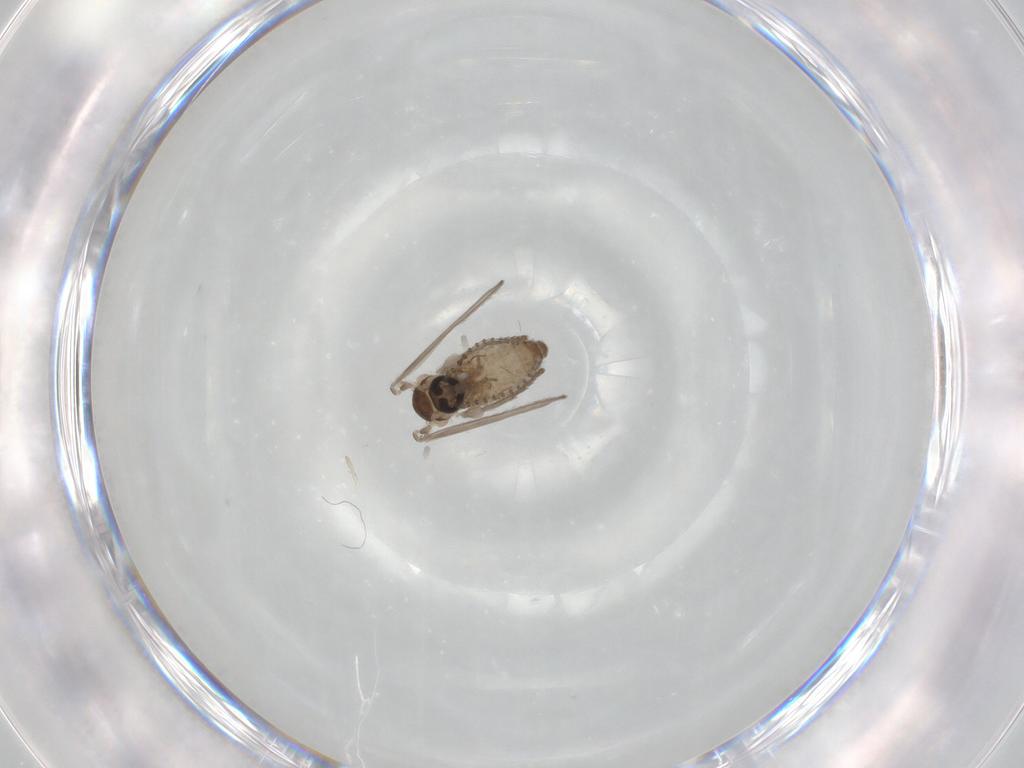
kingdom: Animalia
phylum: Arthropoda
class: Insecta
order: Diptera
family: Psychodidae
